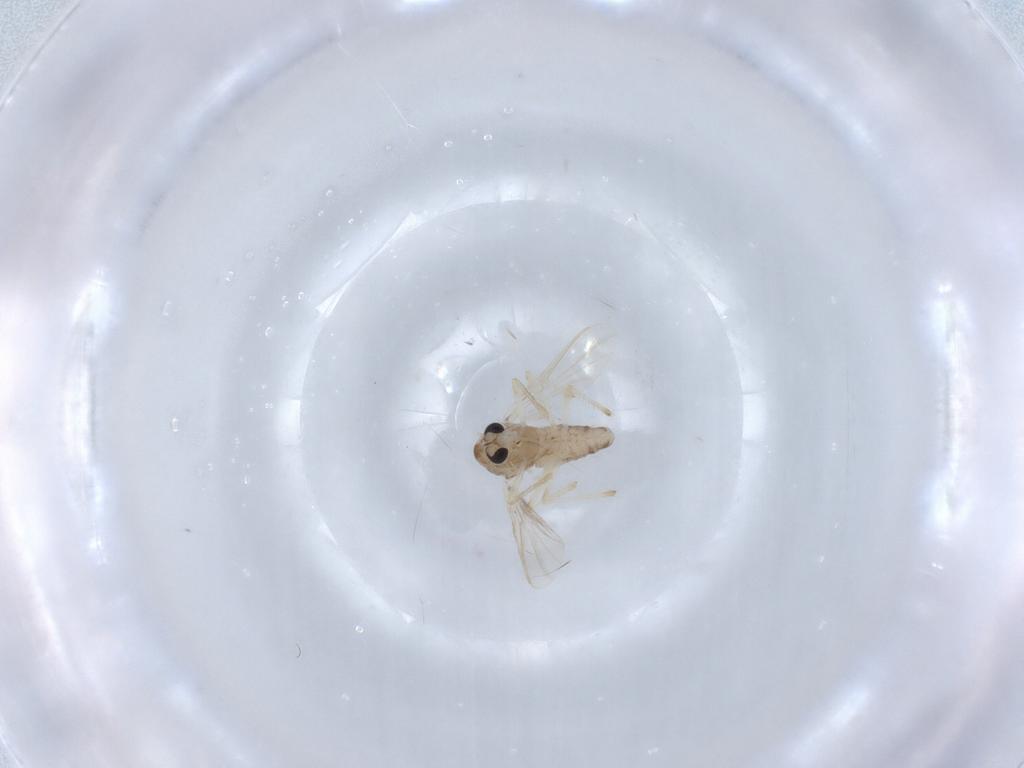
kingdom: Animalia
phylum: Arthropoda
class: Insecta
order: Diptera
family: Chironomidae
